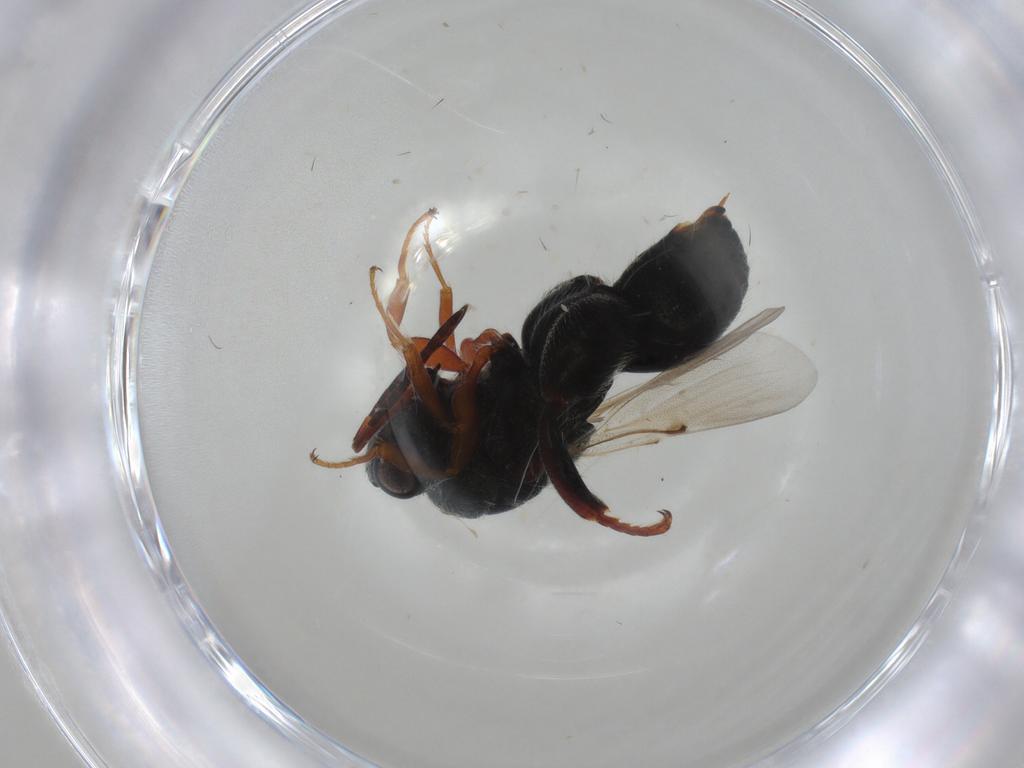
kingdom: Animalia
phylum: Arthropoda
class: Insecta
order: Hymenoptera
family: Chalcididae
